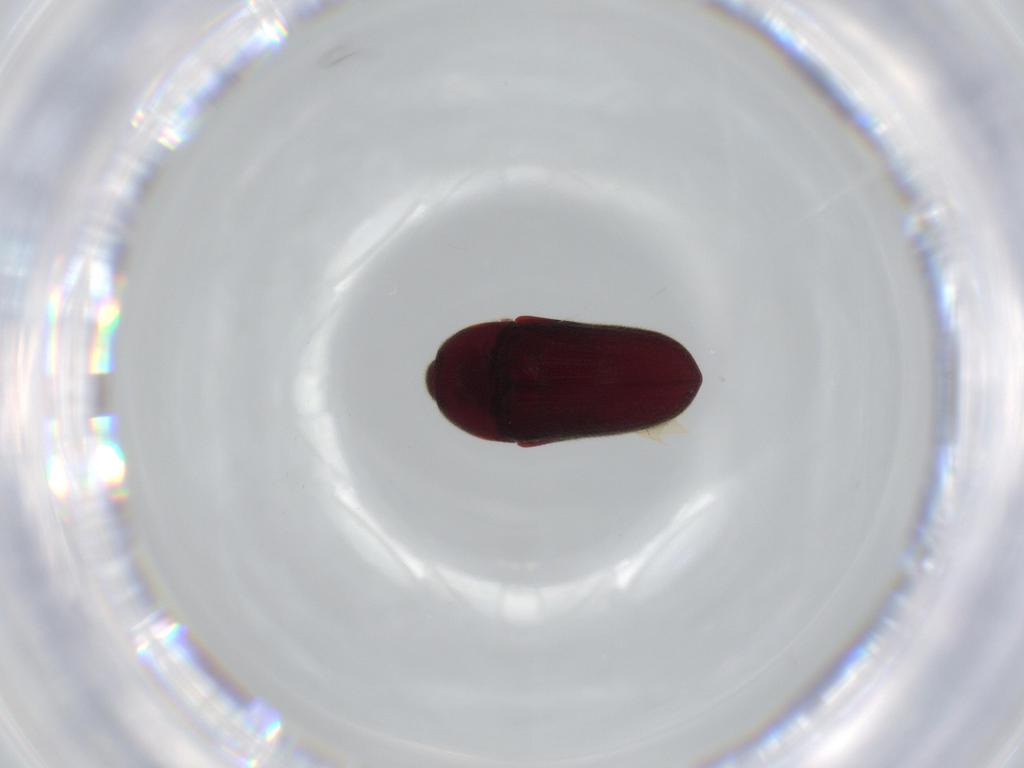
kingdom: Animalia
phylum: Arthropoda
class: Insecta
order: Coleoptera
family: Throscidae
